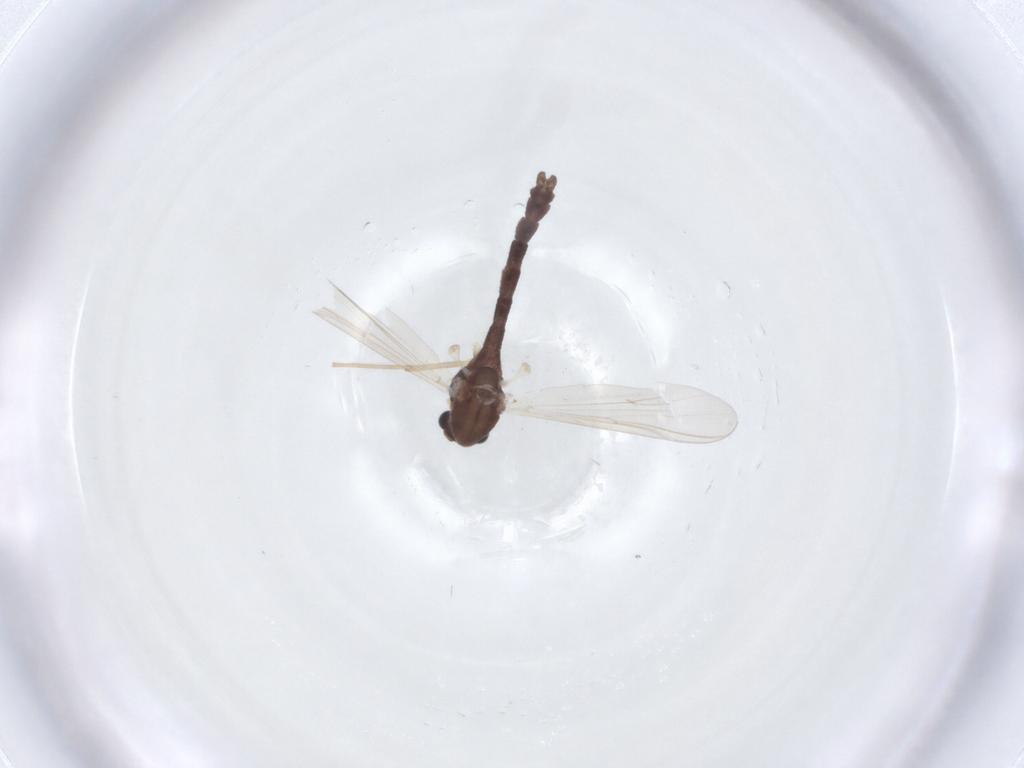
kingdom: Animalia
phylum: Arthropoda
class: Insecta
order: Diptera
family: Chironomidae
